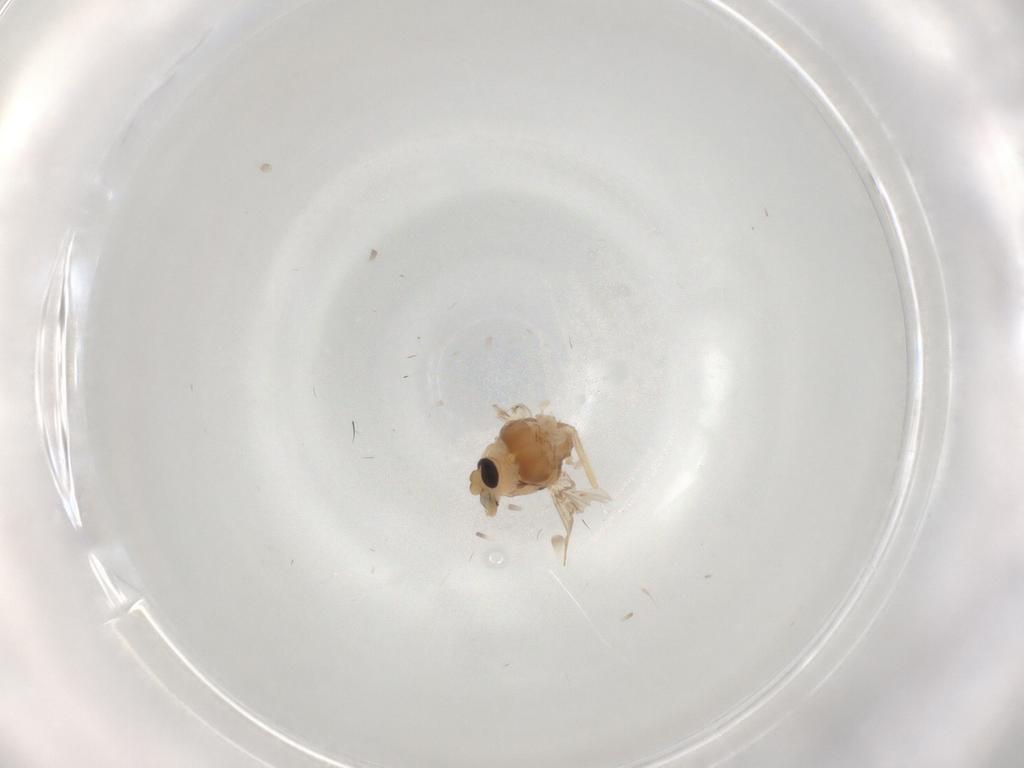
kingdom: Animalia
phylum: Arthropoda
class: Insecta
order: Diptera
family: Chironomidae
